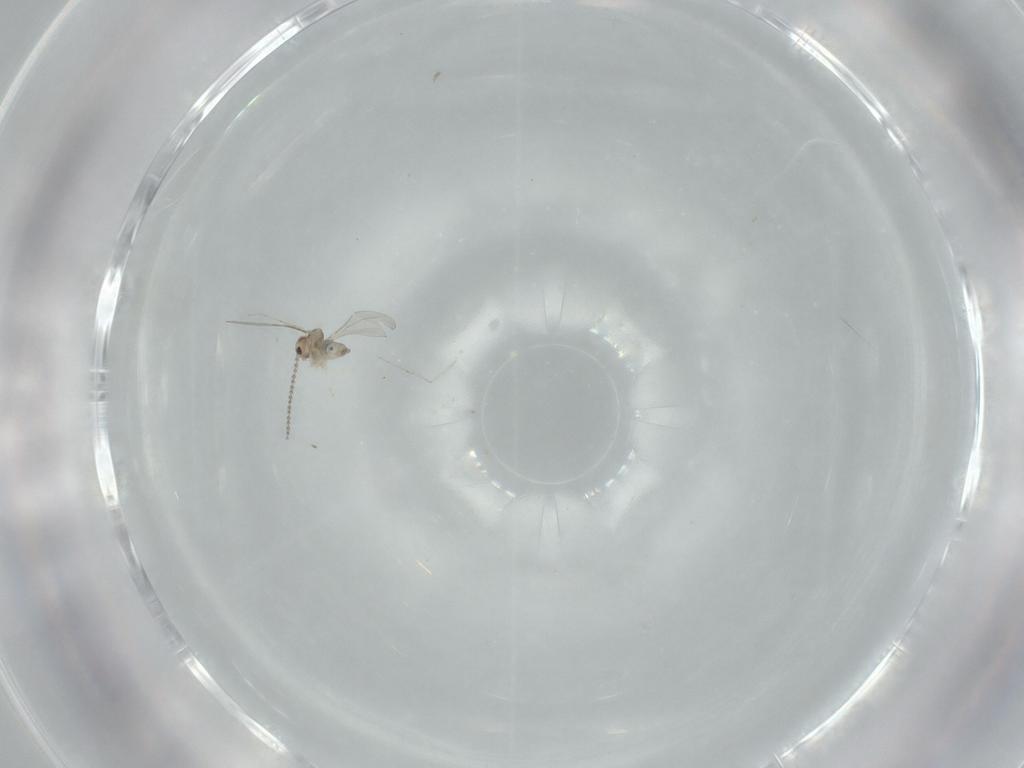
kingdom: Animalia
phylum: Arthropoda
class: Insecta
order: Diptera
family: Cecidomyiidae
